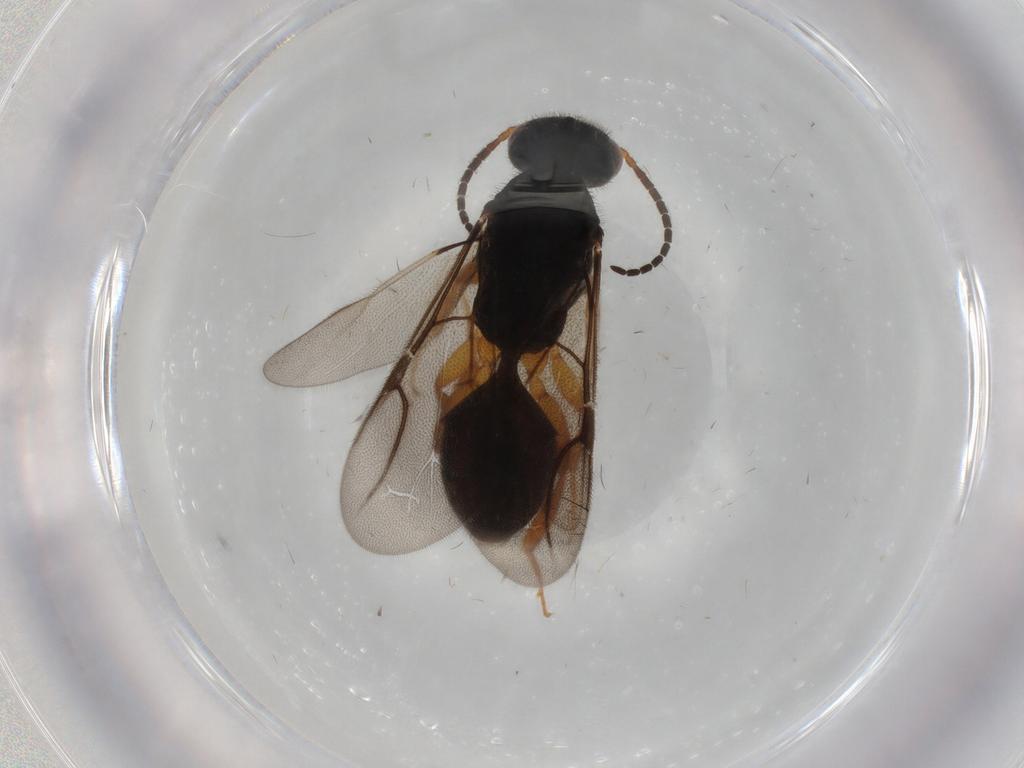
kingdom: Animalia
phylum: Arthropoda
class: Insecta
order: Hymenoptera
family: Bethylidae
